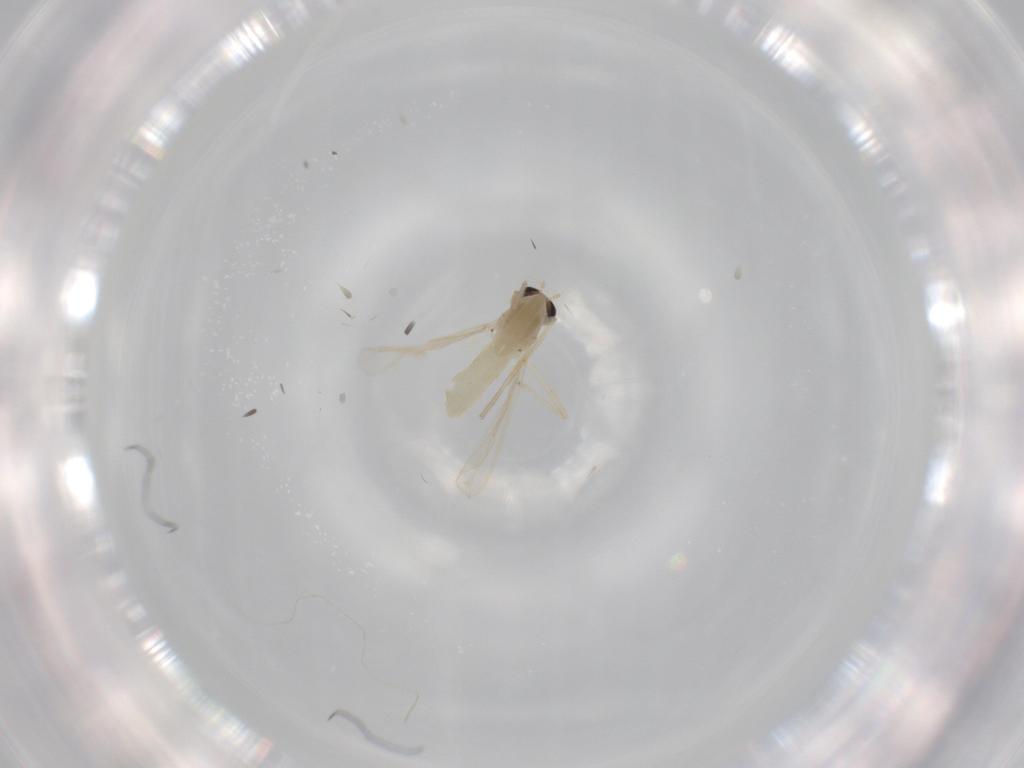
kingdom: Animalia
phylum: Arthropoda
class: Insecta
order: Diptera
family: Chironomidae
